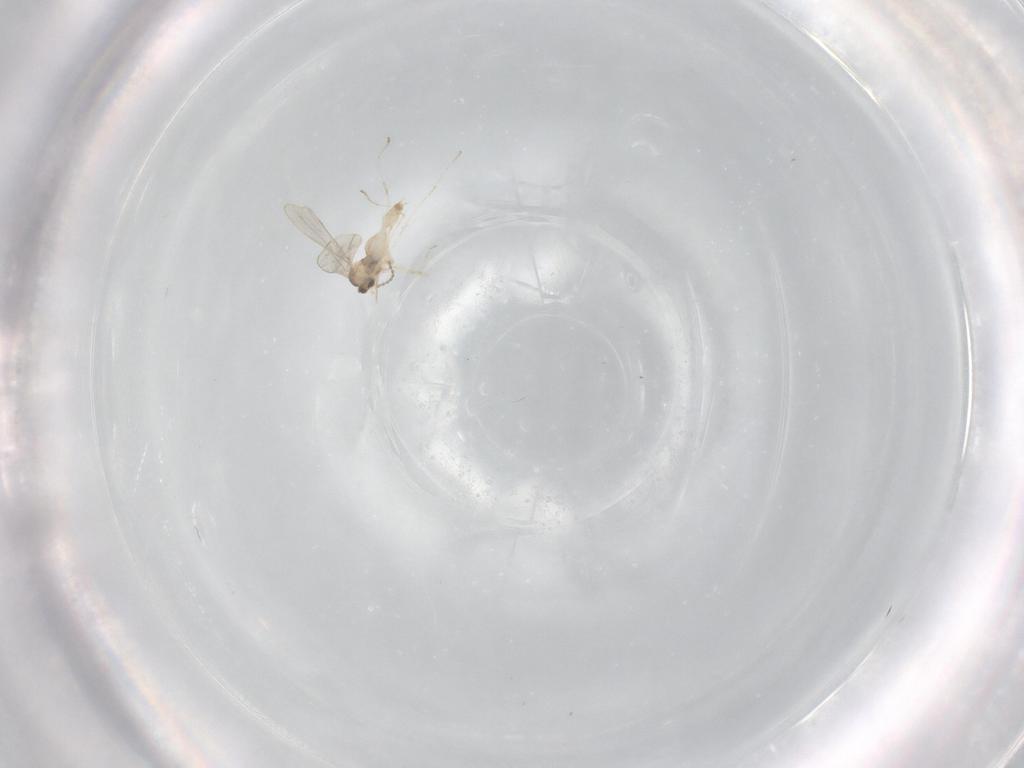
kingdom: Animalia
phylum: Arthropoda
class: Insecta
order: Diptera
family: Cecidomyiidae
